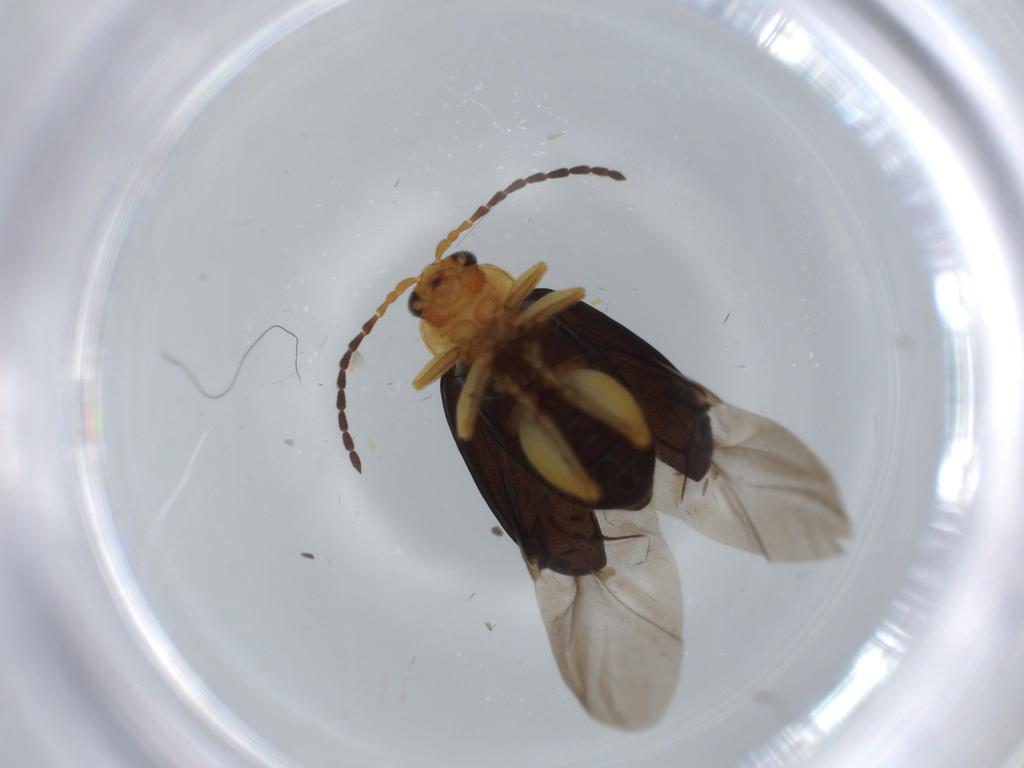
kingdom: Animalia
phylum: Arthropoda
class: Insecta
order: Coleoptera
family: Chrysomelidae
